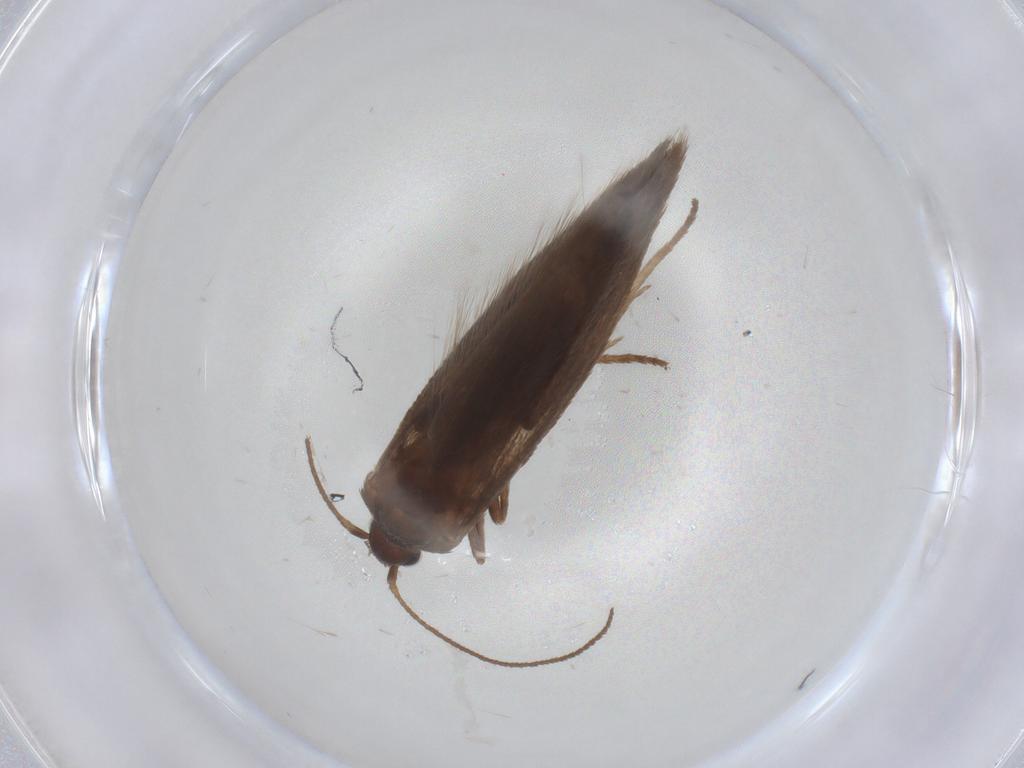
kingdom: Animalia
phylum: Arthropoda
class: Insecta
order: Lepidoptera
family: Limacodidae
